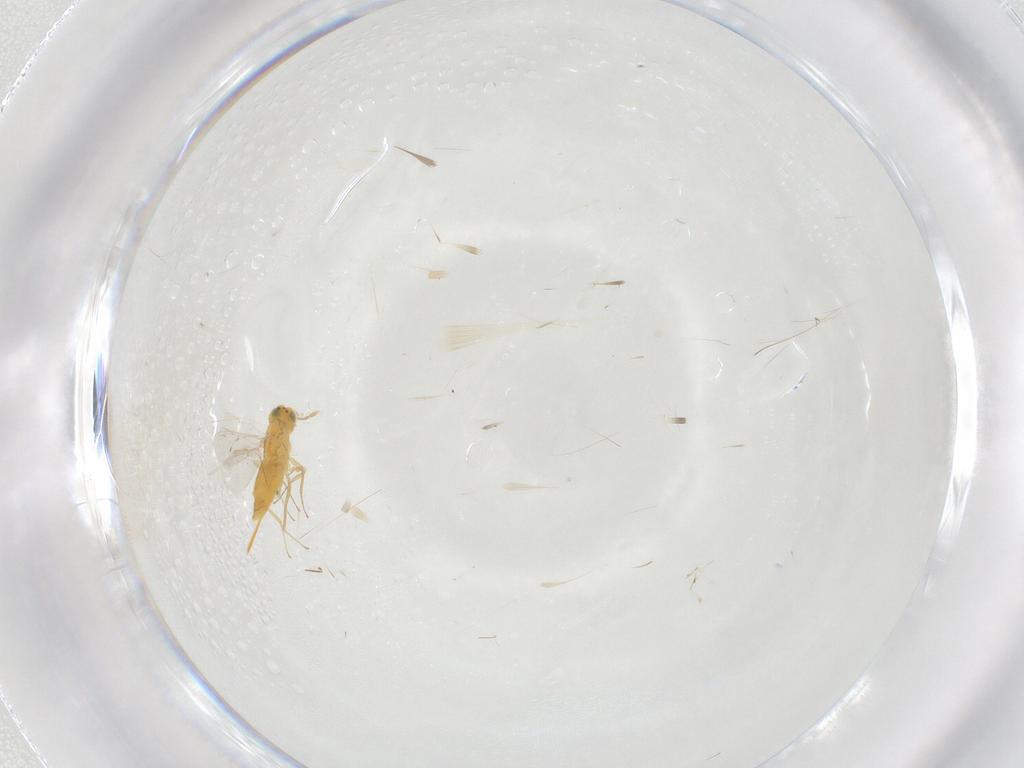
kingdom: Animalia
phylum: Arthropoda
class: Insecta
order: Hymenoptera
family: Aphelinidae
